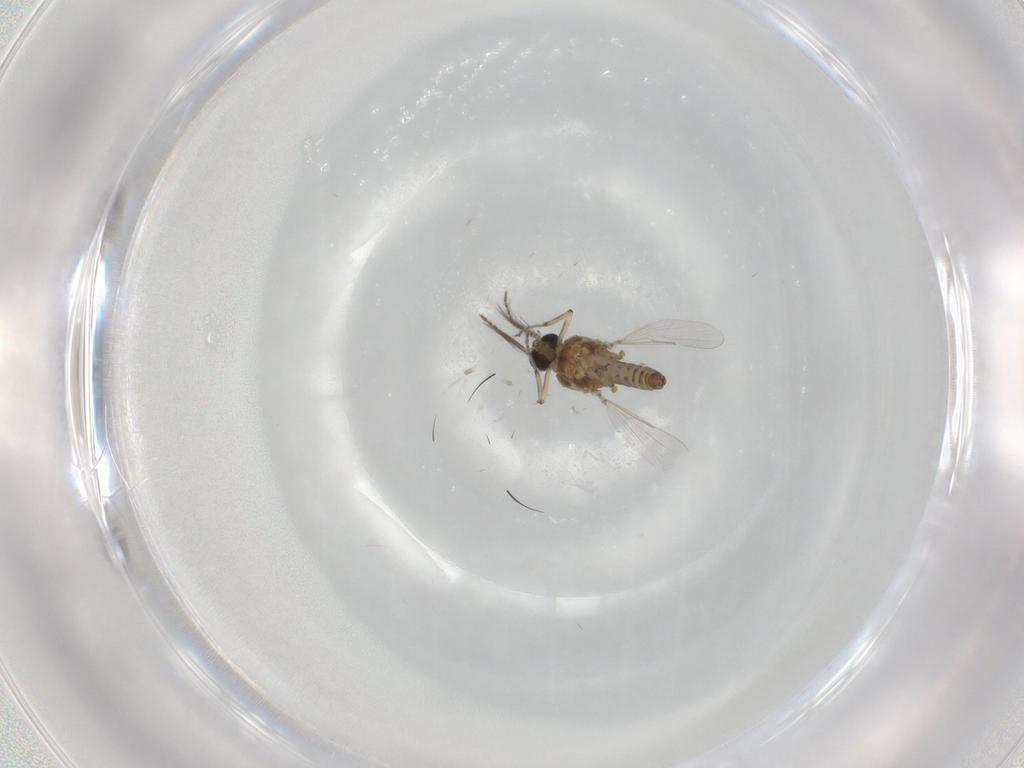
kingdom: Animalia
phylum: Arthropoda
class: Insecta
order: Diptera
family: Ceratopogonidae
